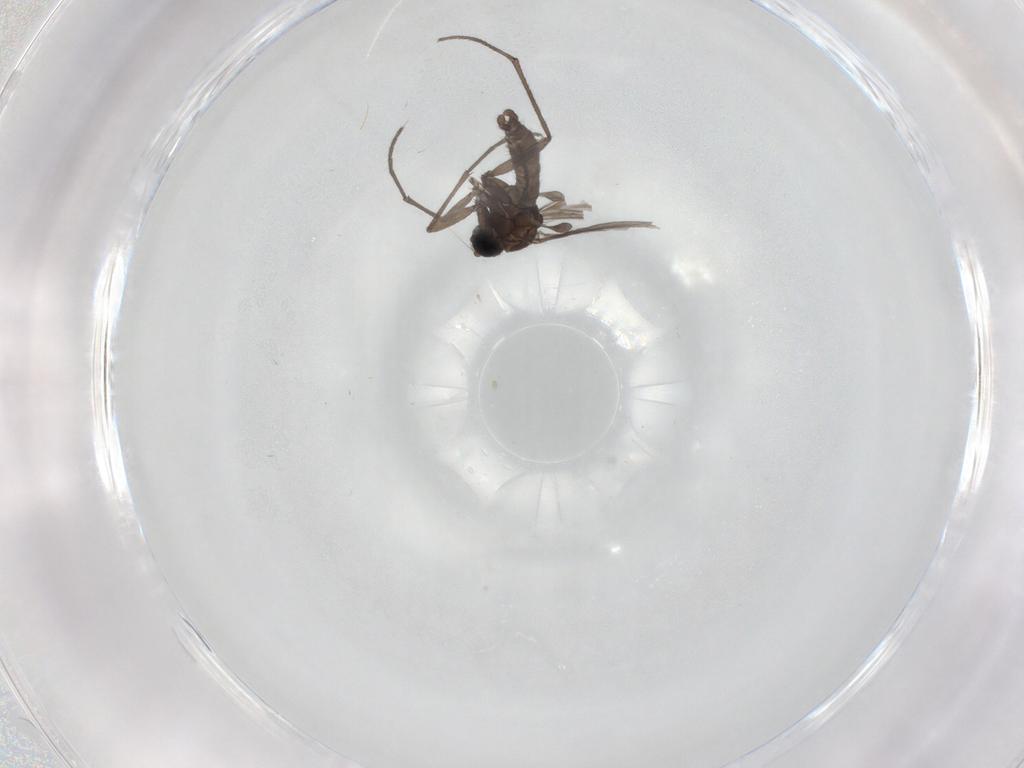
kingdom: Animalia
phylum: Arthropoda
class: Insecta
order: Diptera
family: Sciaridae
